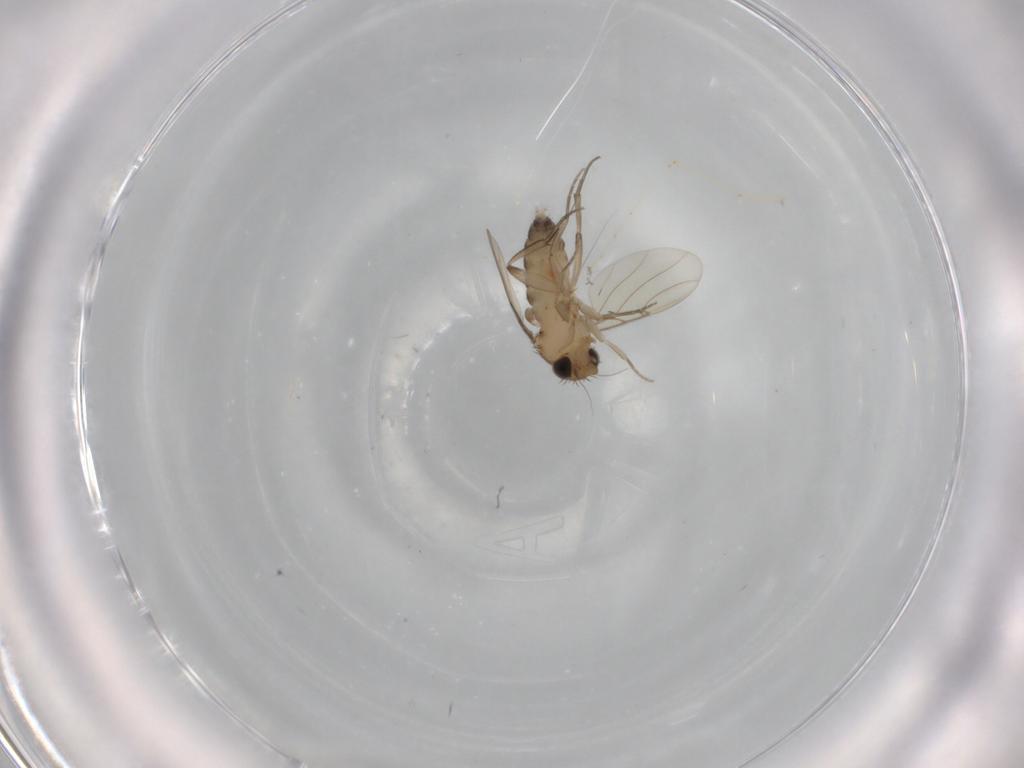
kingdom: Animalia
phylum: Arthropoda
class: Insecta
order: Diptera
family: Phoridae
